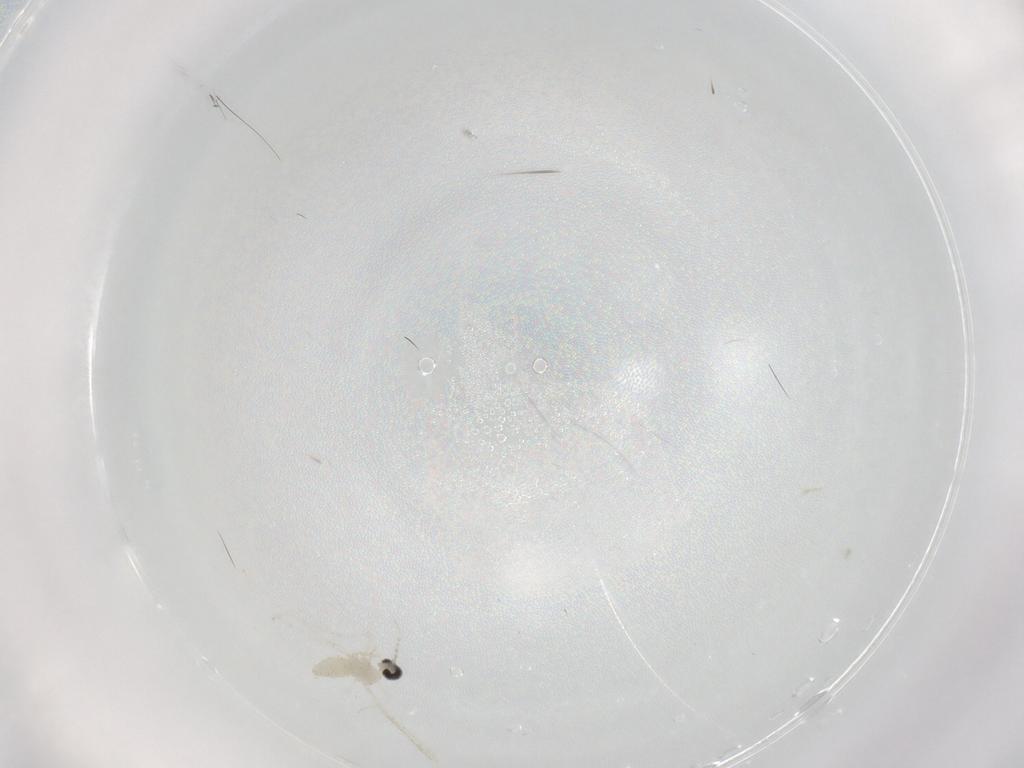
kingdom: Animalia
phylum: Arthropoda
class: Insecta
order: Diptera
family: Cecidomyiidae
